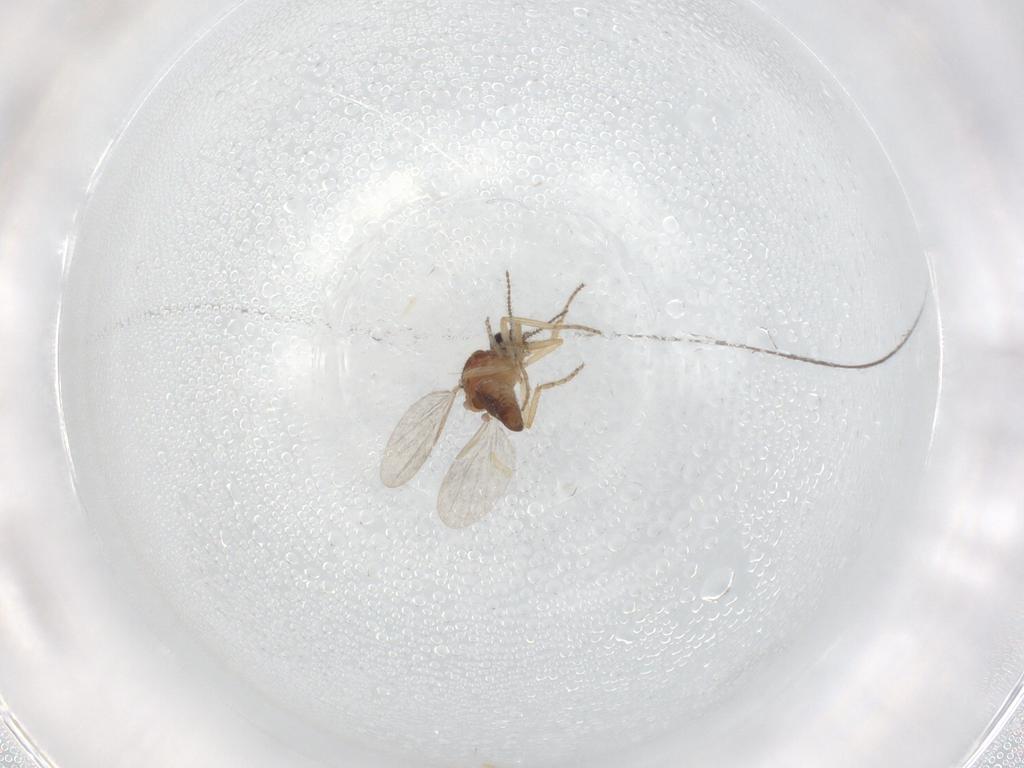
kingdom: Animalia
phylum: Arthropoda
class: Insecta
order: Diptera
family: Ceratopogonidae
